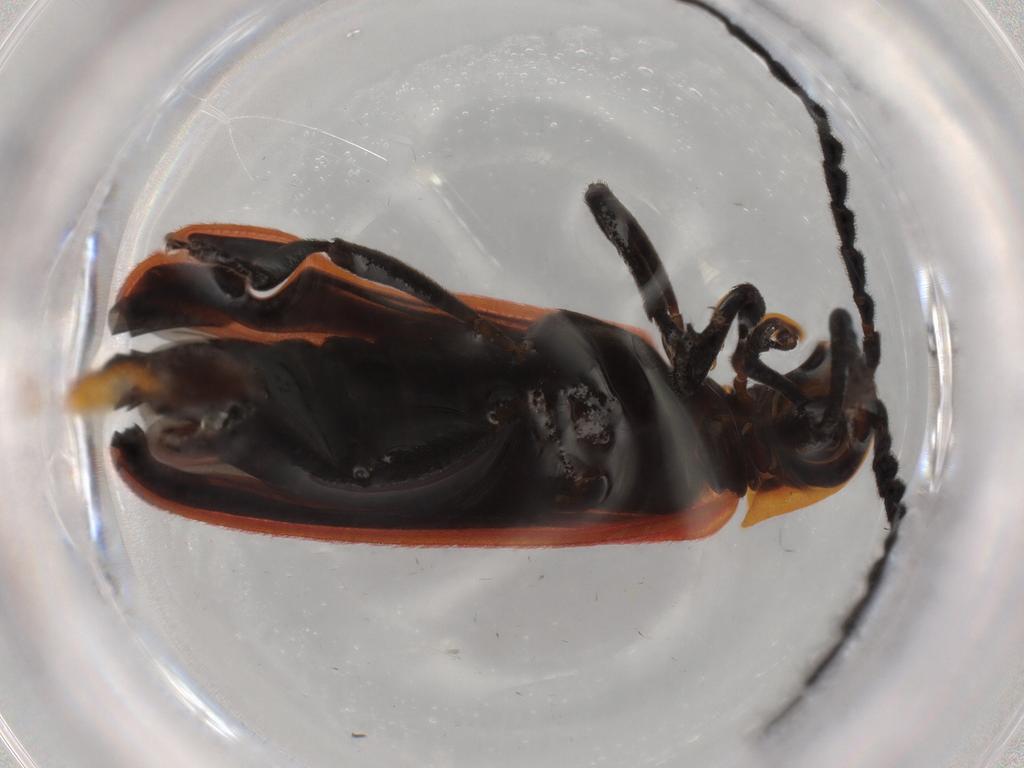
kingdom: Animalia
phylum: Arthropoda
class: Insecta
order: Coleoptera
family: Lycidae
